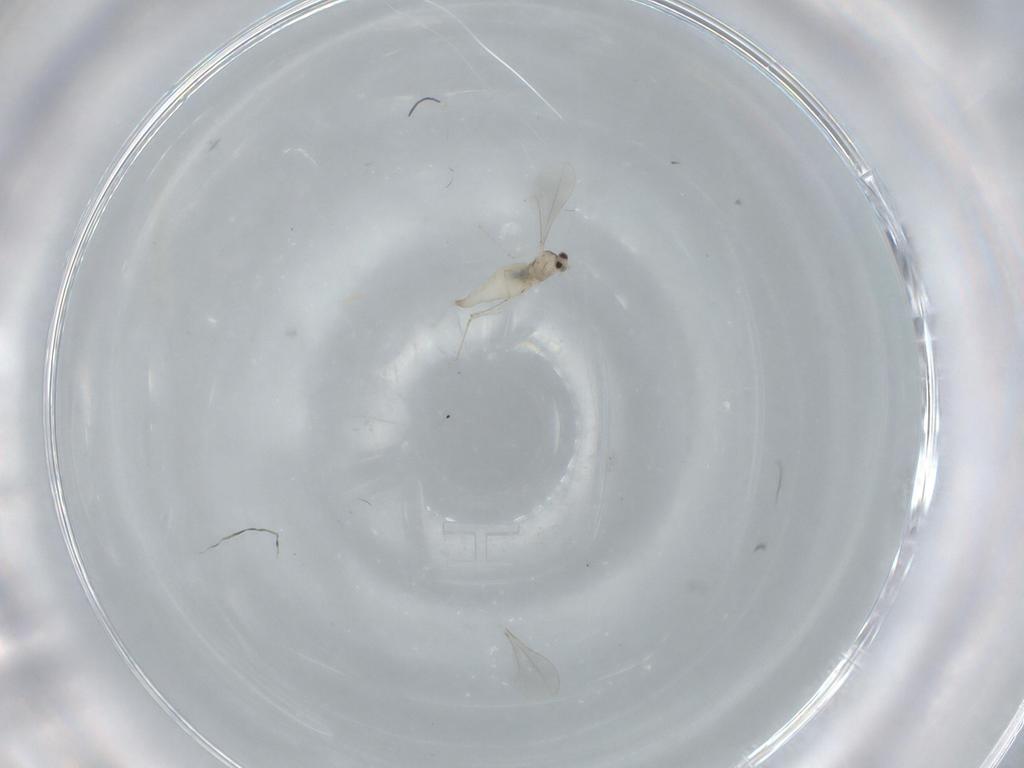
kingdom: Animalia
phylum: Arthropoda
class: Insecta
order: Diptera
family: Cecidomyiidae
